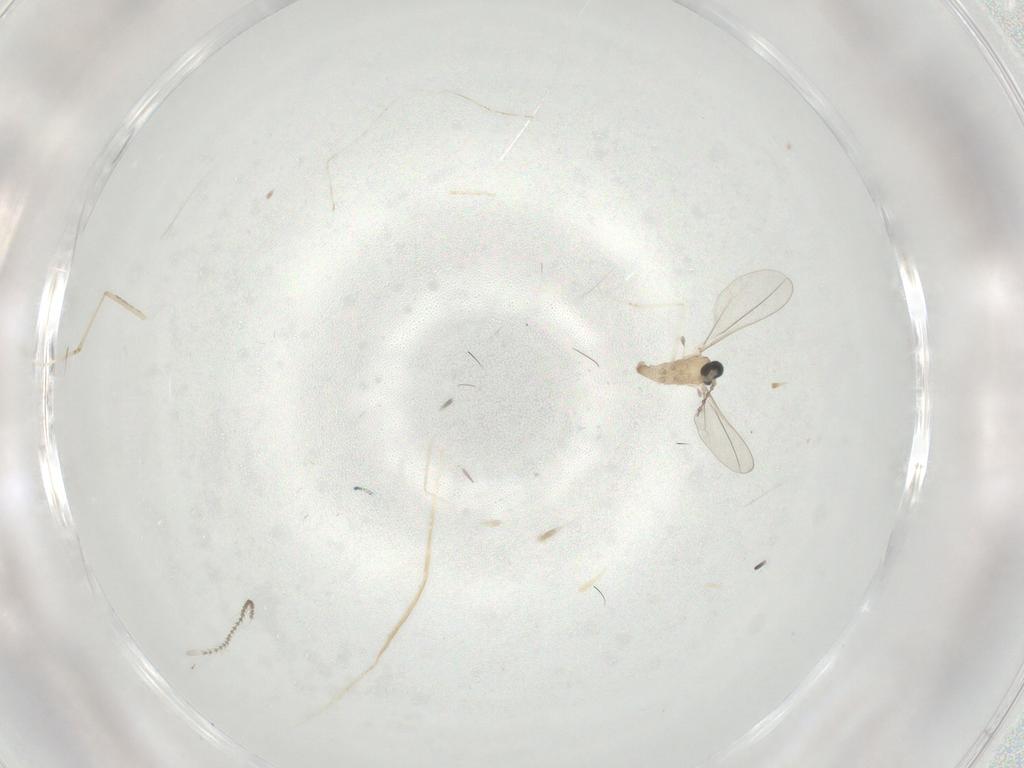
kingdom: Animalia
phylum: Arthropoda
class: Insecta
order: Diptera
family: Cecidomyiidae
